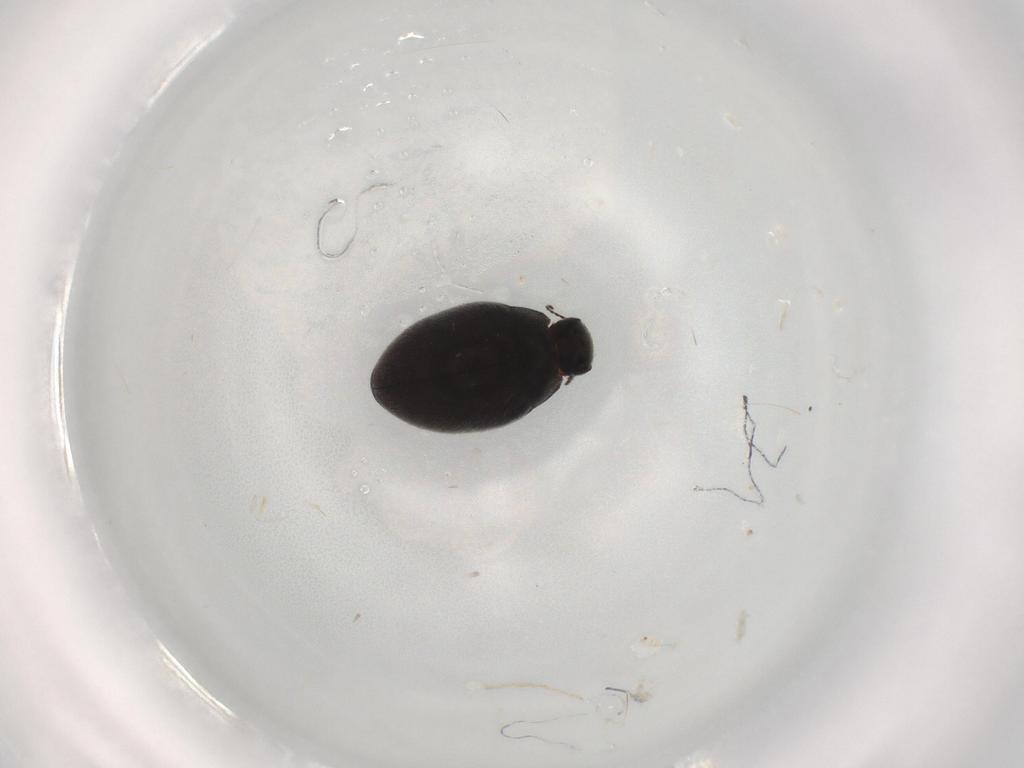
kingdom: Animalia
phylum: Arthropoda
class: Insecta
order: Coleoptera
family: Limnichidae
